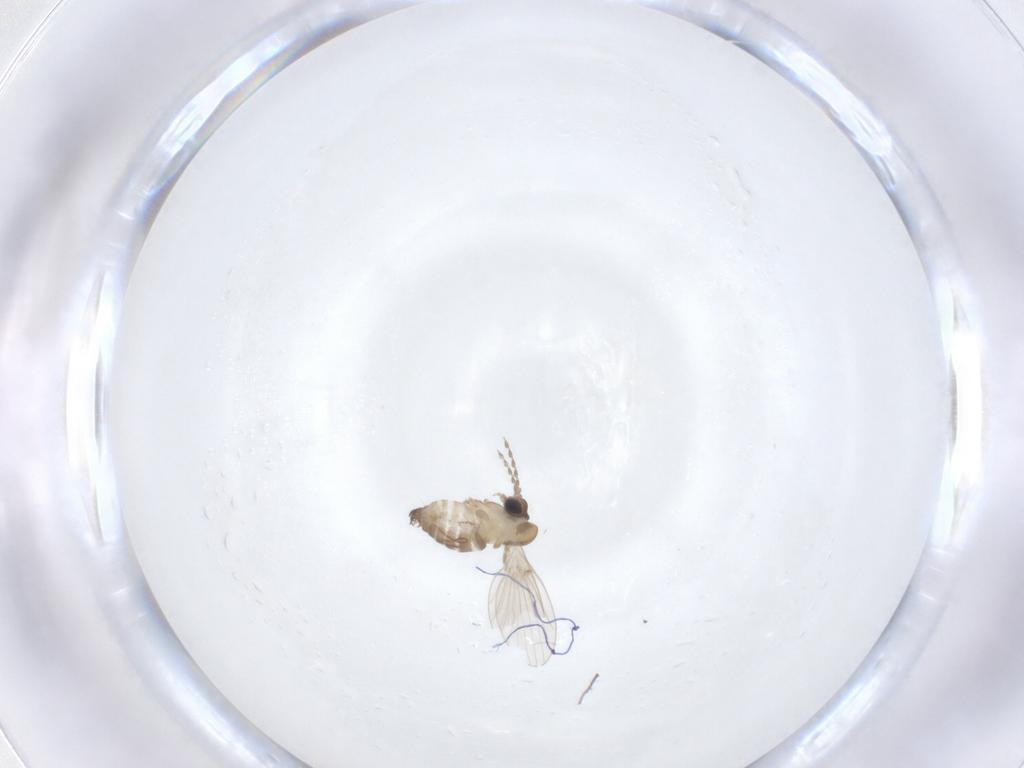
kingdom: Animalia
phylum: Arthropoda
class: Insecta
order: Diptera
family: Psychodidae
